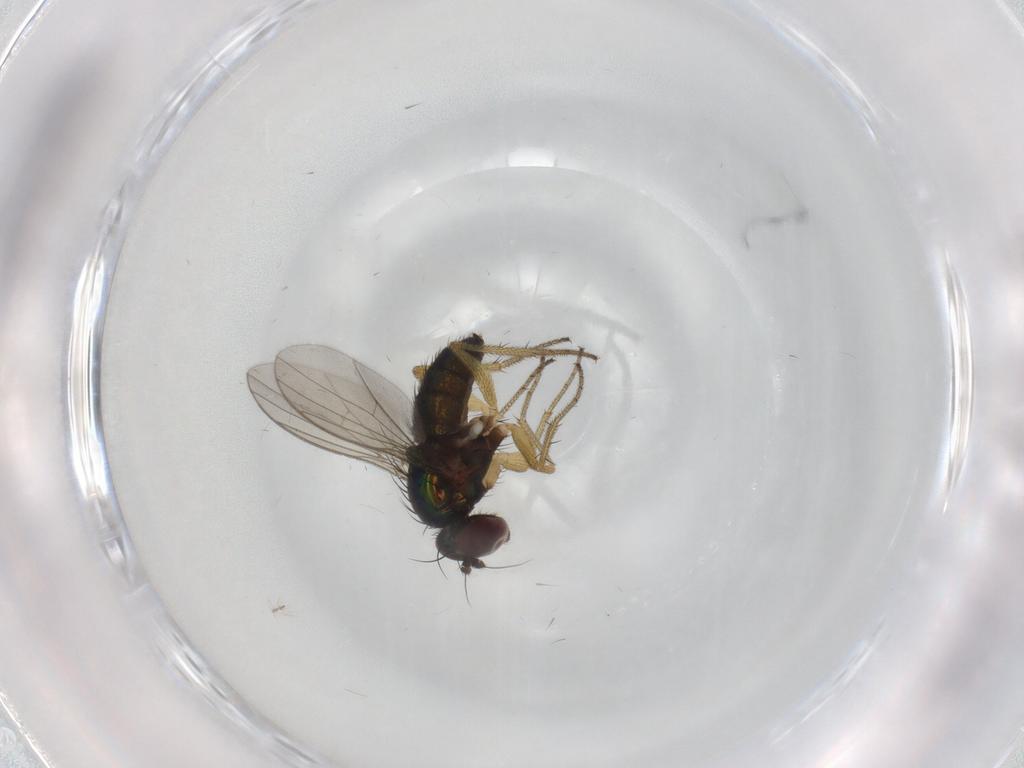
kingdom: Animalia
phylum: Arthropoda
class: Insecta
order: Diptera
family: Dolichopodidae
